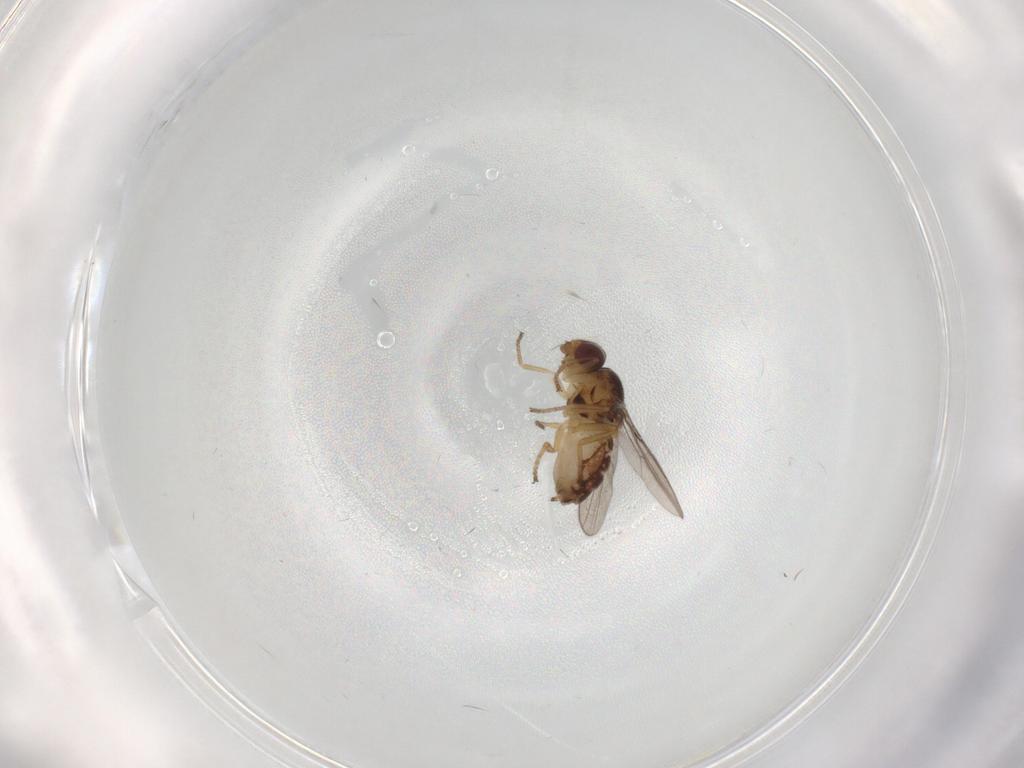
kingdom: Animalia
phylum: Arthropoda
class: Insecta
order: Diptera
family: Chloropidae
